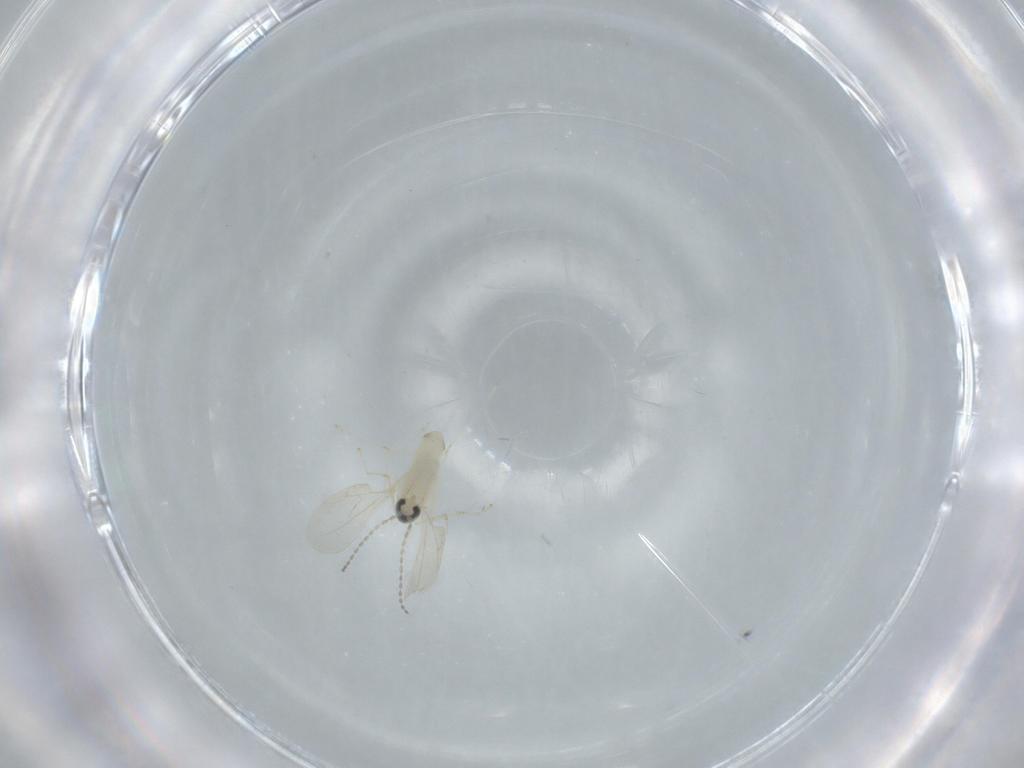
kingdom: Animalia
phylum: Arthropoda
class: Insecta
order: Diptera
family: Cecidomyiidae
